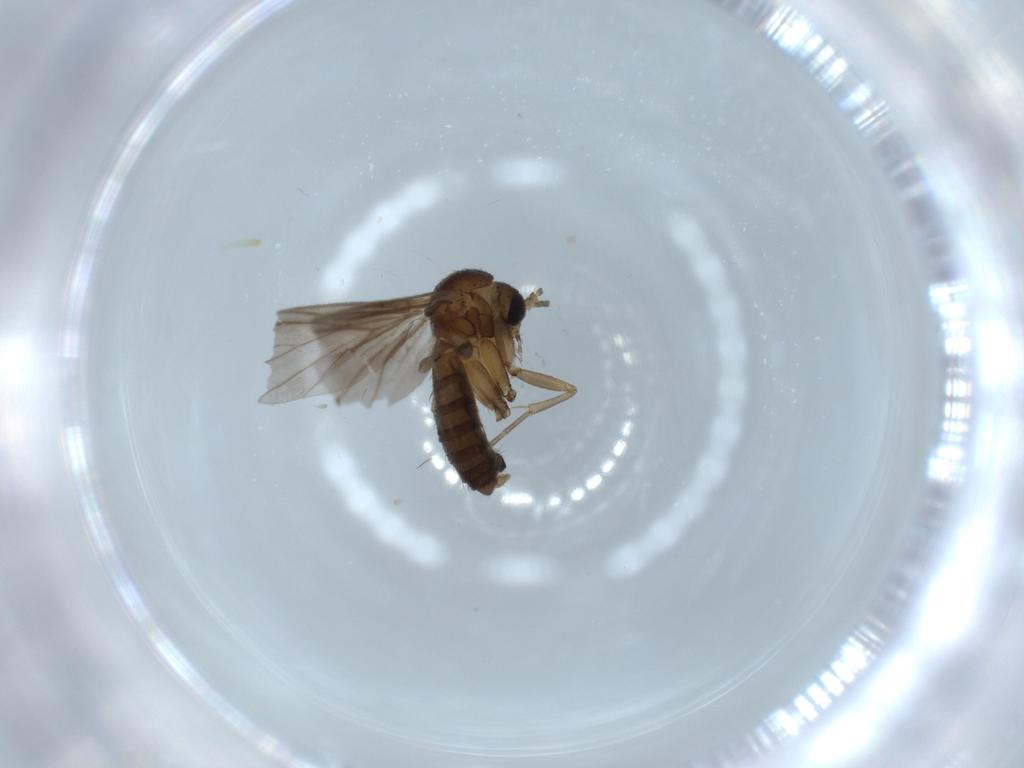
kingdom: Animalia
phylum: Arthropoda
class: Insecta
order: Diptera
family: Mycetophilidae
